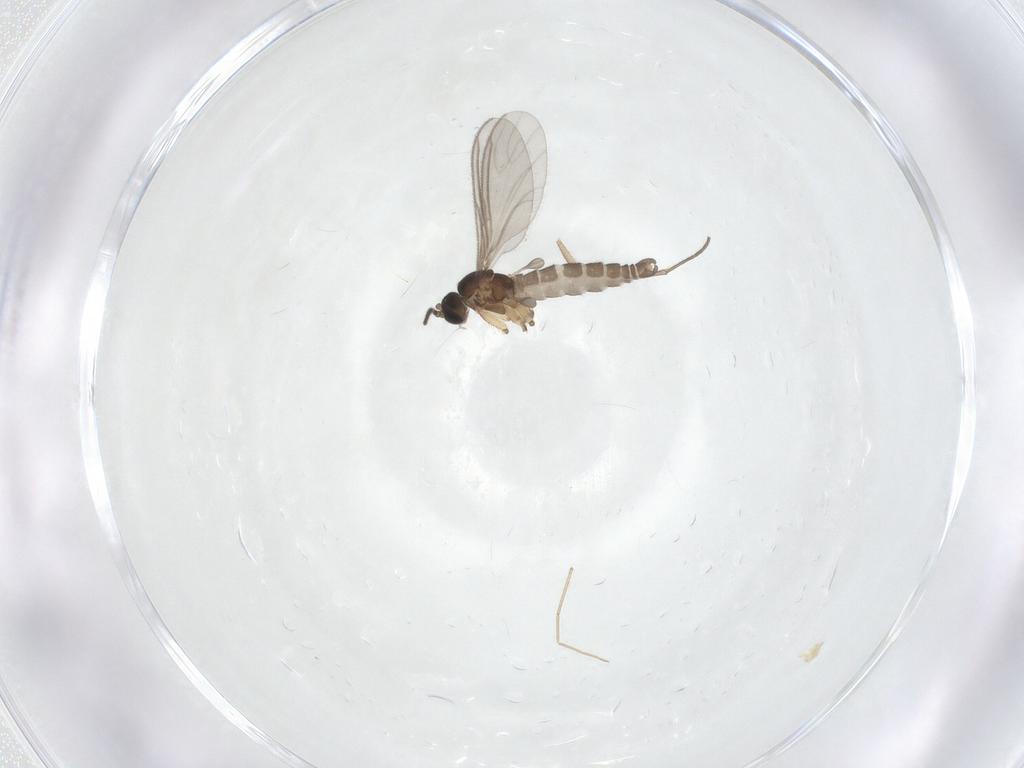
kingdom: Animalia
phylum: Arthropoda
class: Insecta
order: Diptera
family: Sciaridae
